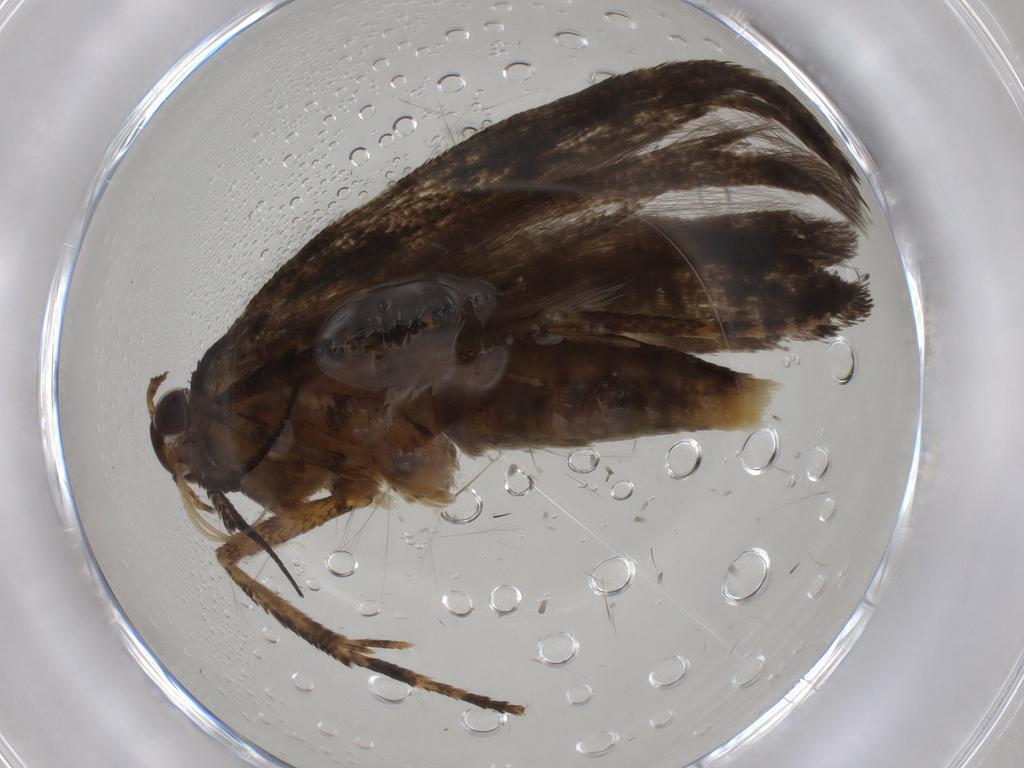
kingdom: Animalia
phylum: Arthropoda
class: Insecta
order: Lepidoptera
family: Gelechiidae
